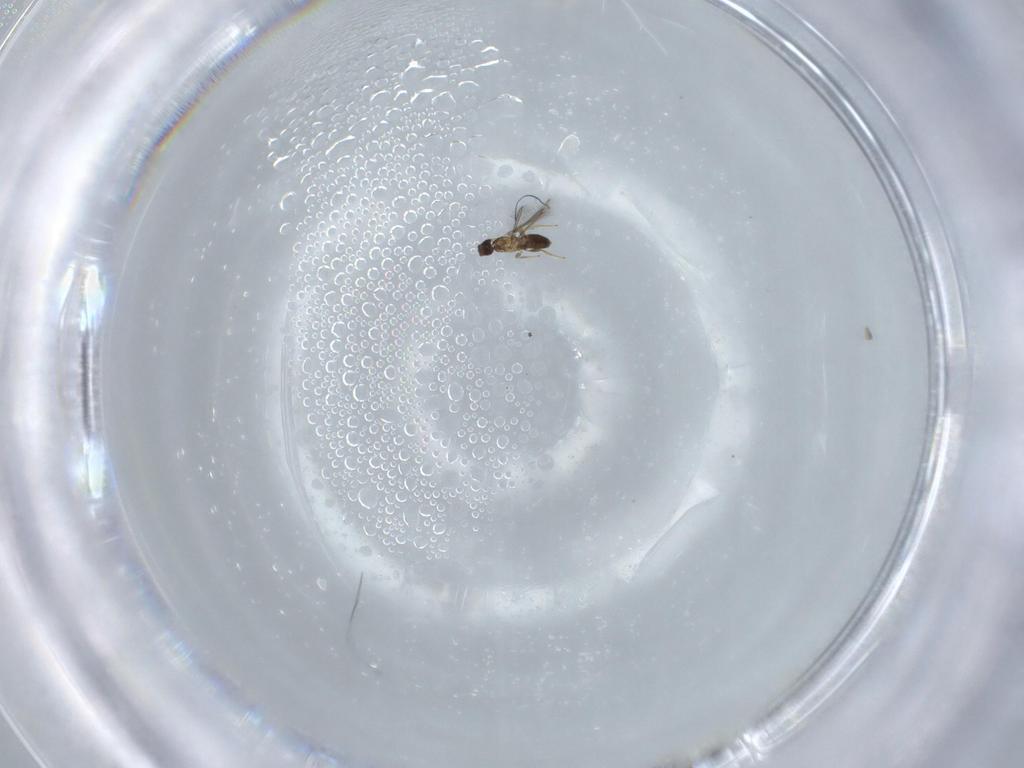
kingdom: Animalia
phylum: Arthropoda
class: Insecta
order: Hymenoptera
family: Mymaridae
